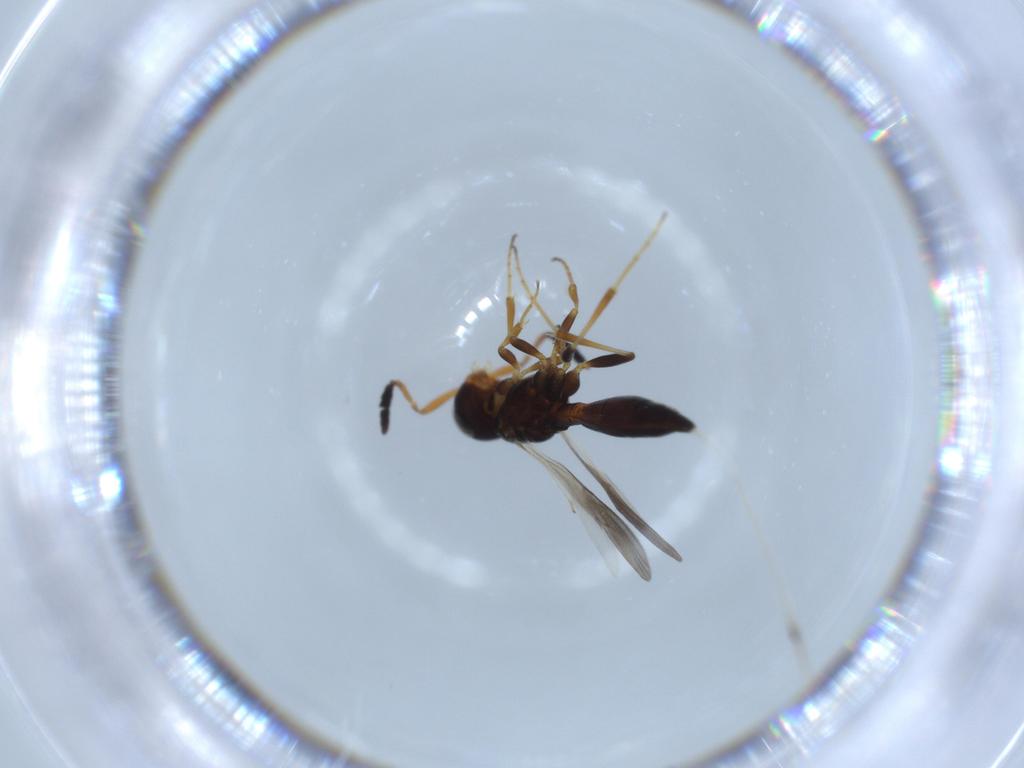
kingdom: Animalia
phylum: Arthropoda
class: Insecta
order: Hymenoptera
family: Scelionidae
